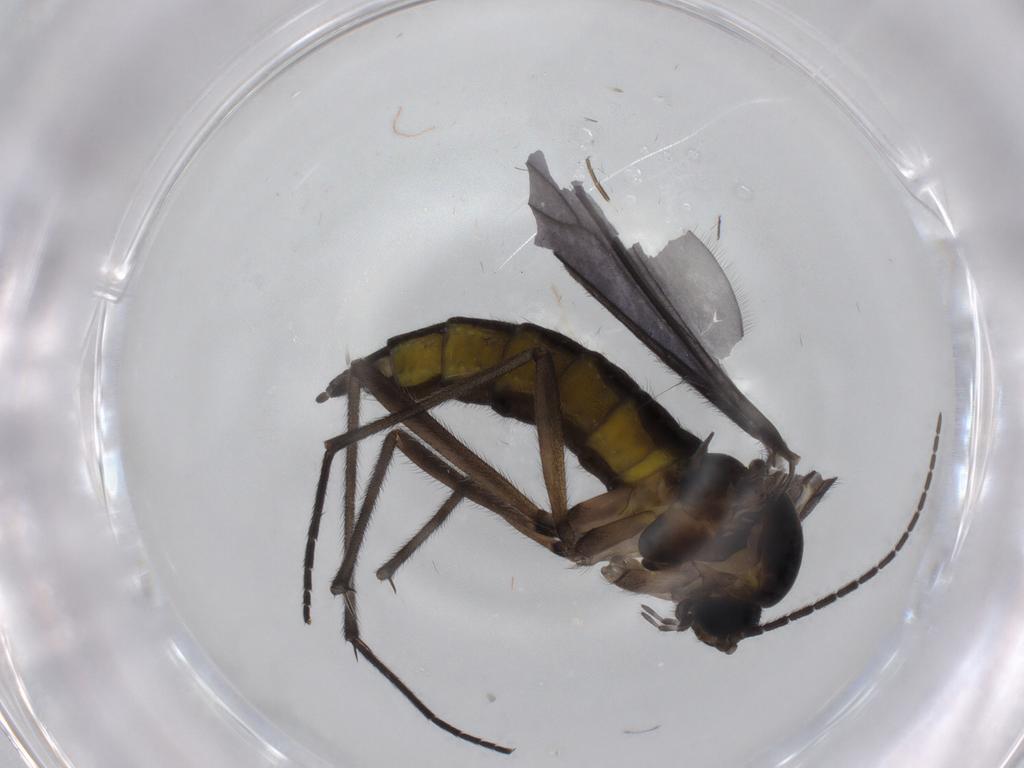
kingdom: Animalia
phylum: Arthropoda
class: Insecta
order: Diptera
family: Sciaridae
